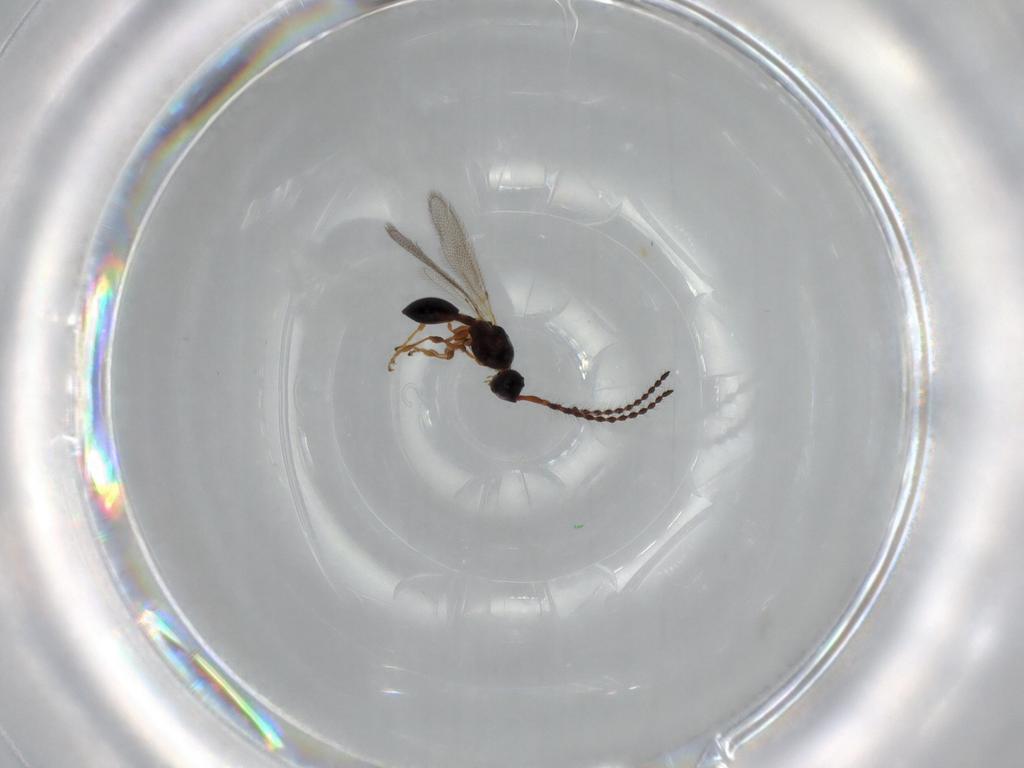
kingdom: Animalia
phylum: Arthropoda
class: Insecta
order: Hymenoptera
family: Diapriidae
